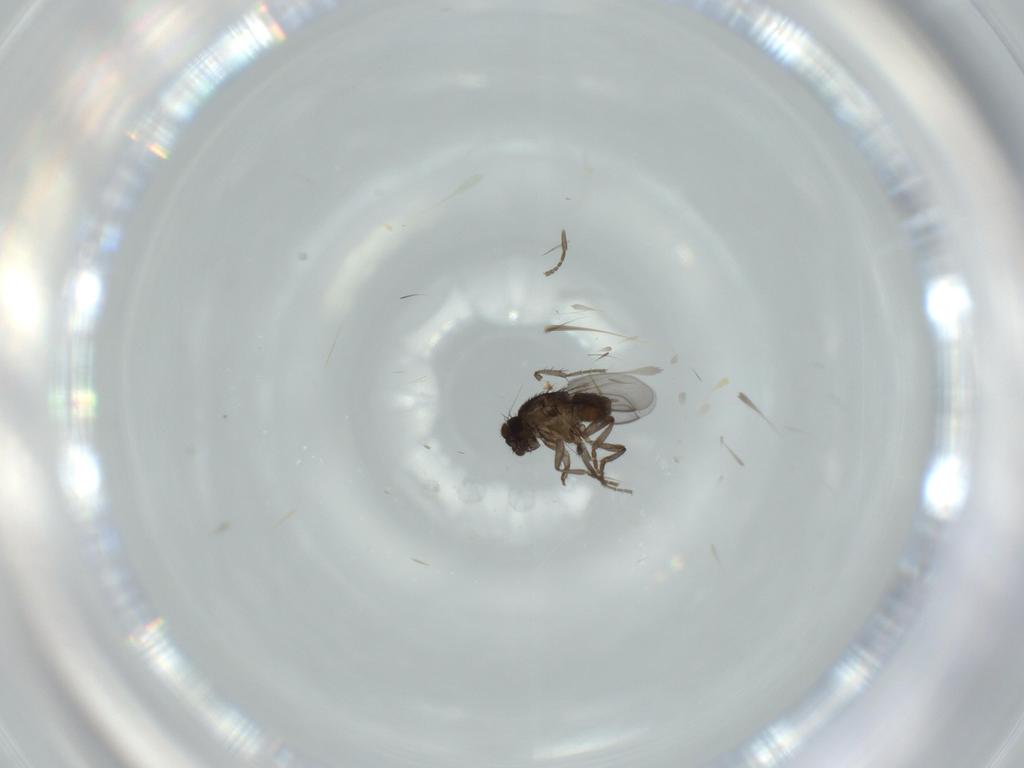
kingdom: Animalia
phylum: Arthropoda
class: Insecta
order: Diptera
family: Sphaeroceridae
